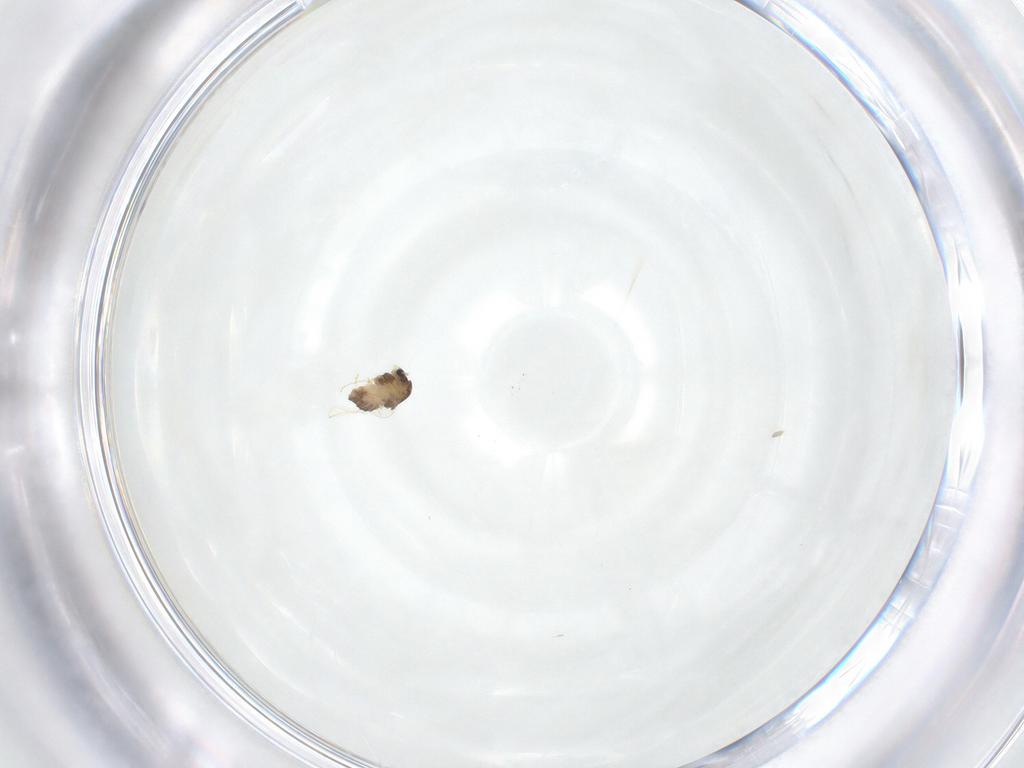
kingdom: Animalia
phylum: Arthropoda
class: Insecta
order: Diptera
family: Chironomidae
